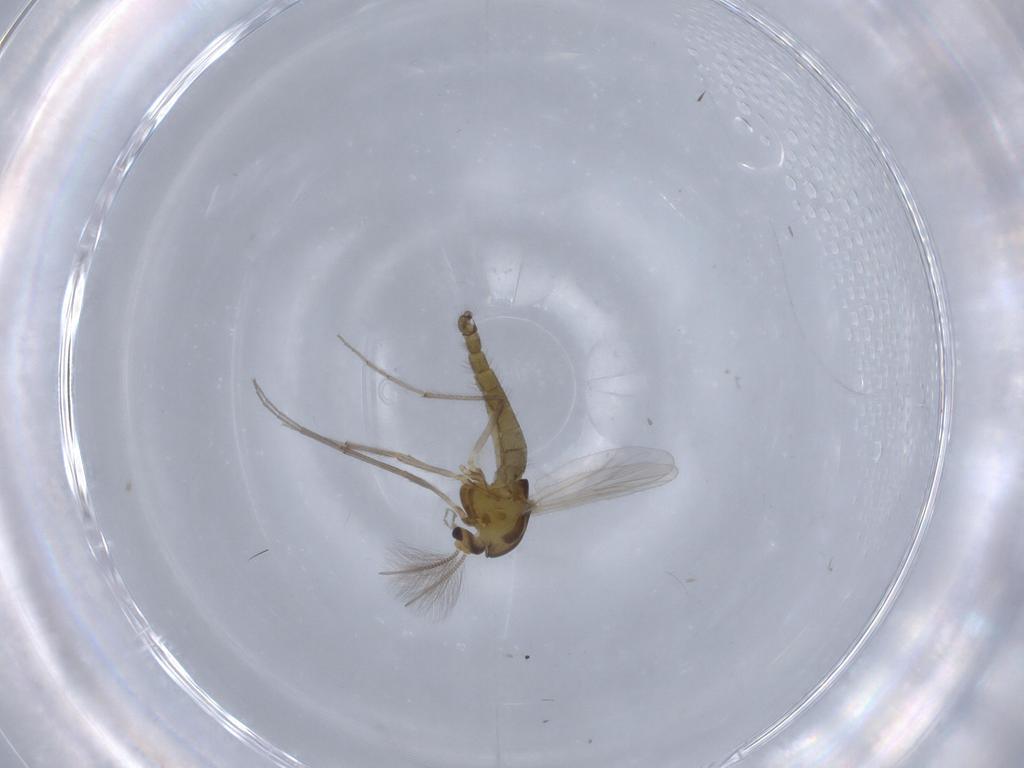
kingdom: Animalia
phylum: Arthropoda
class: Insecta
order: Diptera
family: Chironomidae
